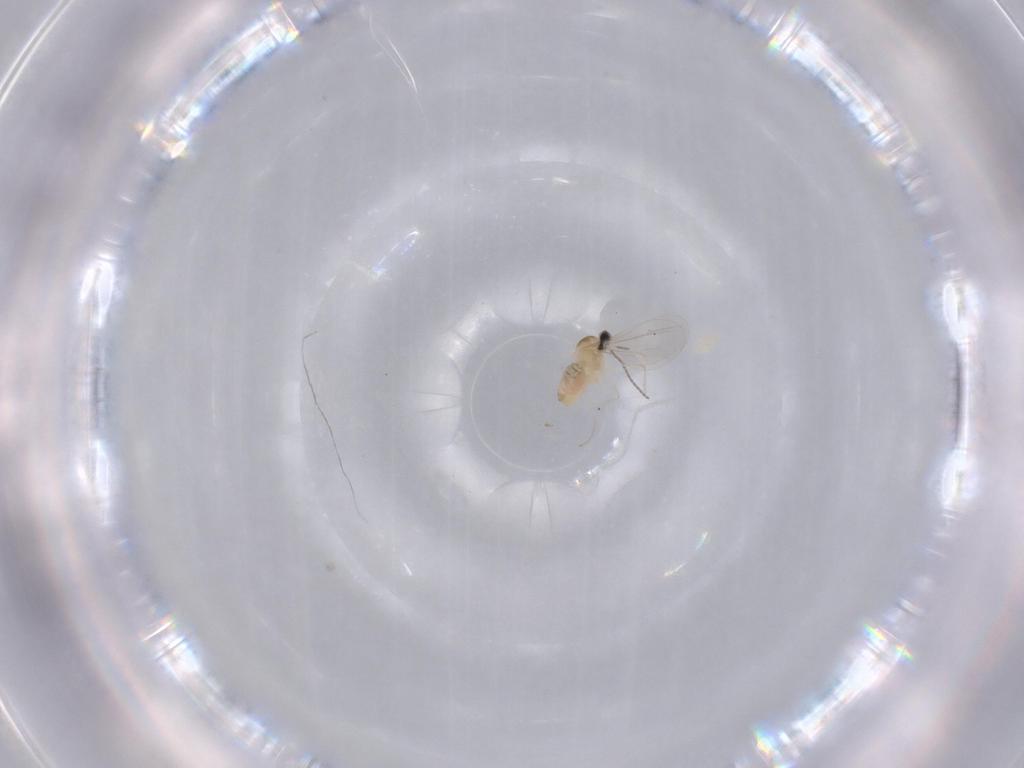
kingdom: Animalia
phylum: Arthropoda
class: Insecta
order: Diptera
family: Cecidomyiidae
